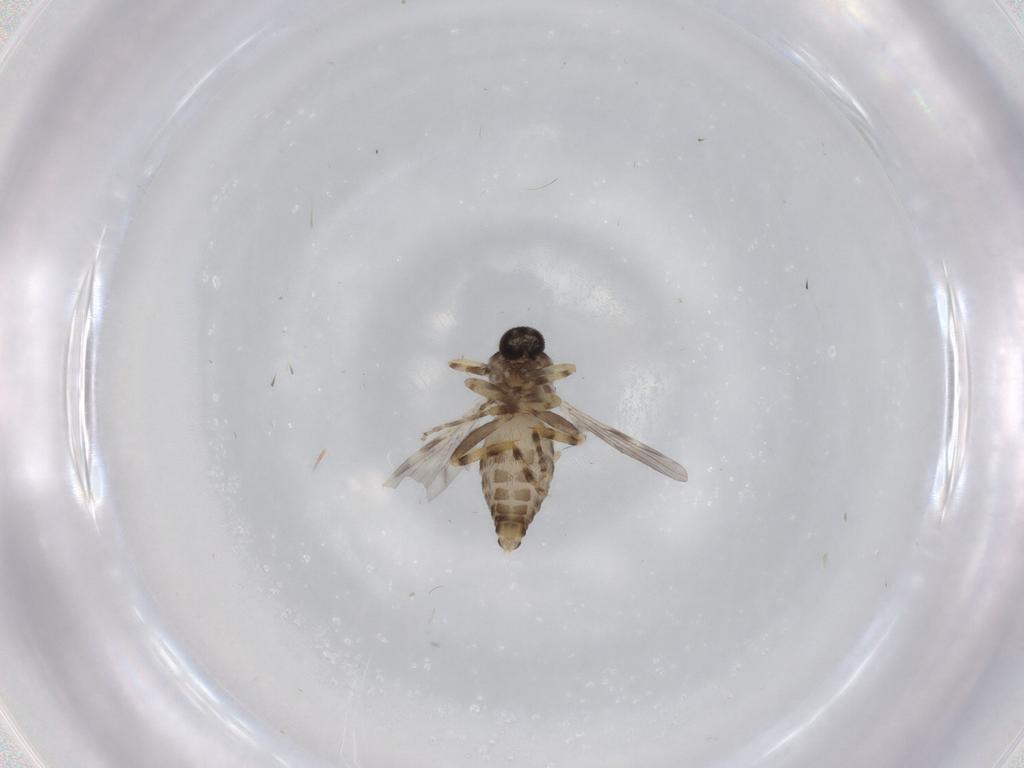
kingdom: Animalia
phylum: Arthropoda
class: Insecta
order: Diptera
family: Ceratopogonidae
